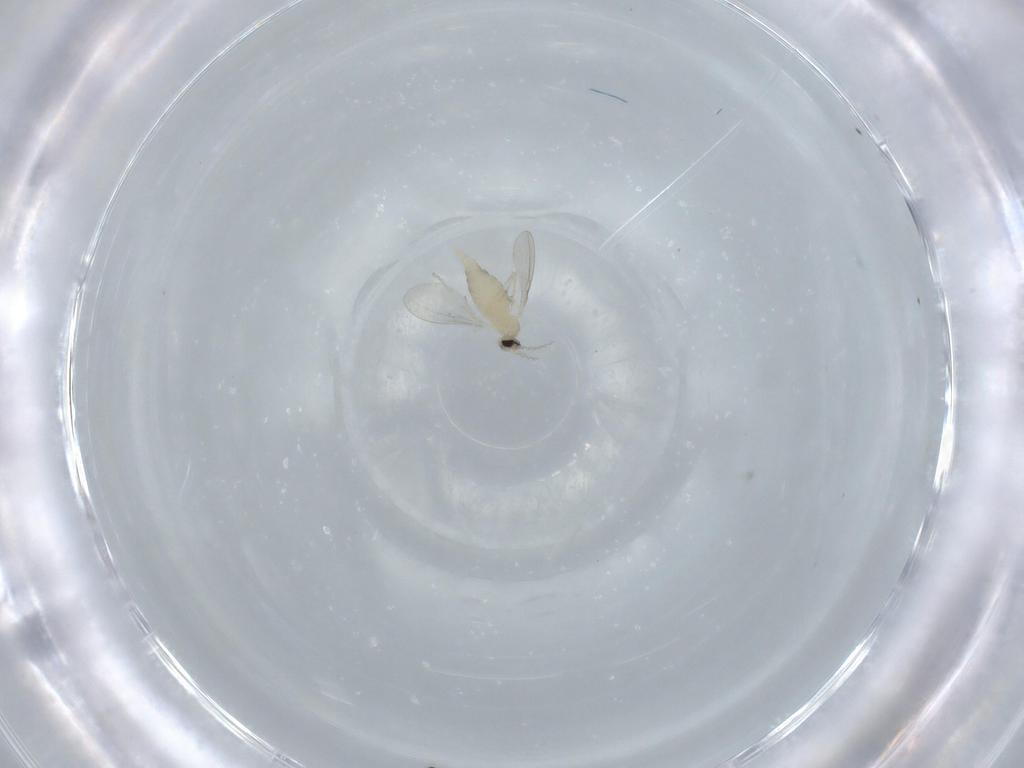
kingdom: Animalia
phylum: Arthropoda
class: Insecta
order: Diptera
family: Cecidomyiidae
